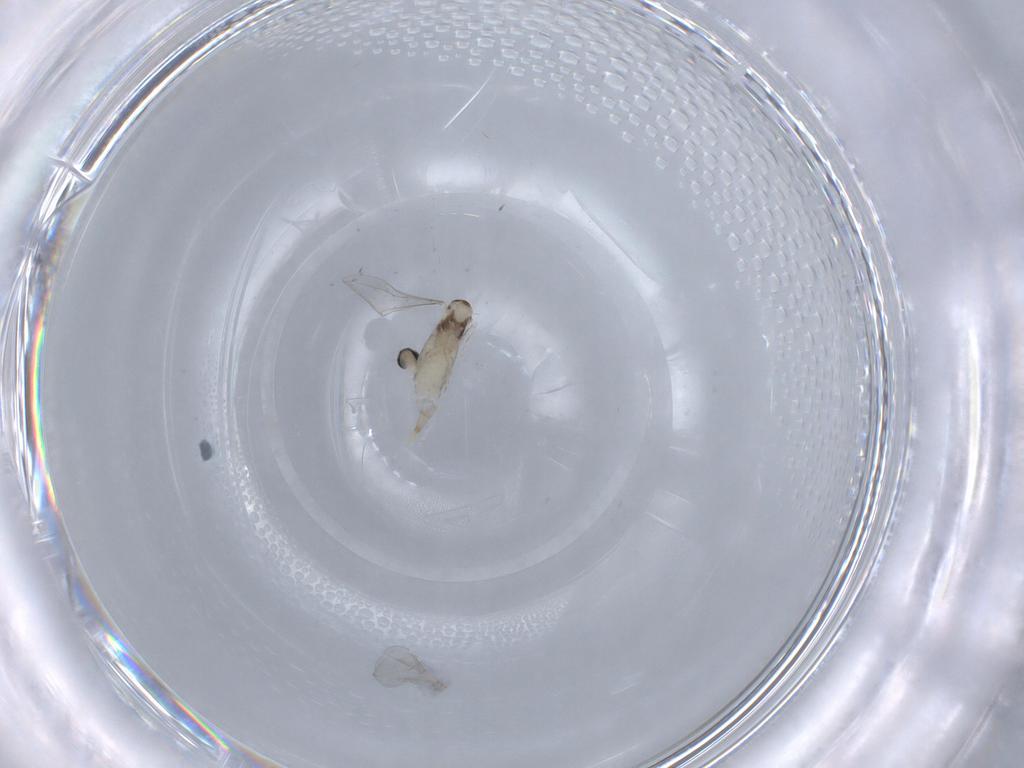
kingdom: Animalia
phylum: Arthropoda
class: Insecta
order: Diptera
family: Cecidomyiidae
